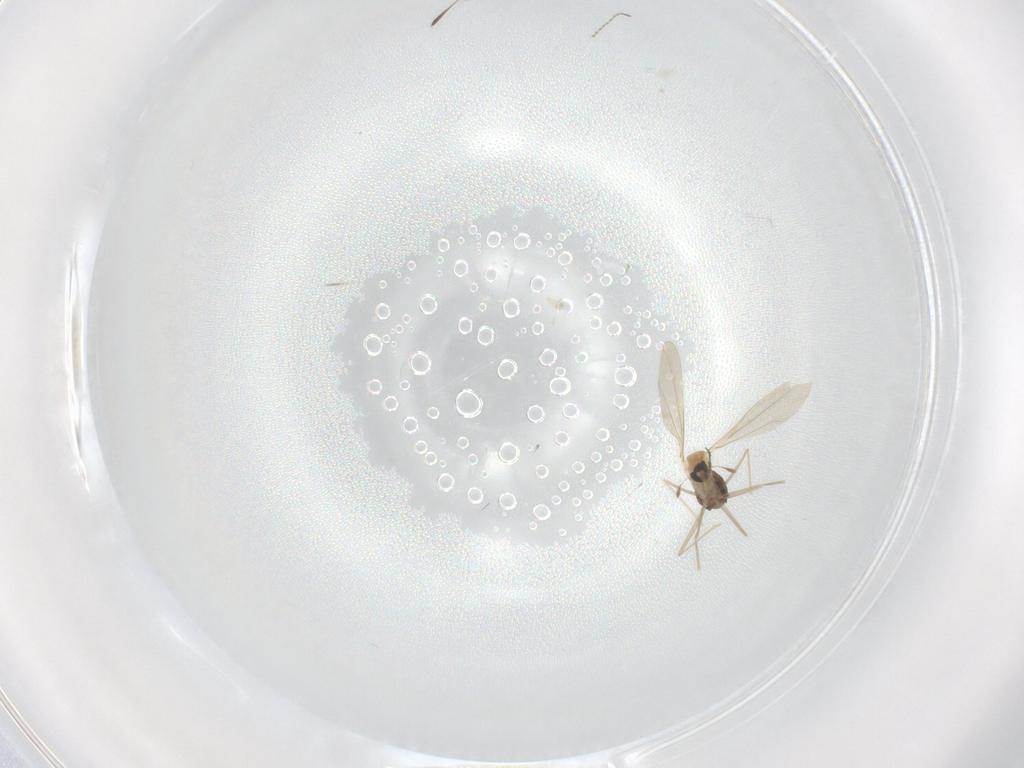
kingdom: Animalia
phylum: Arthropoda
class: Insecta
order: Diptera
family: Cecidomyiidae
